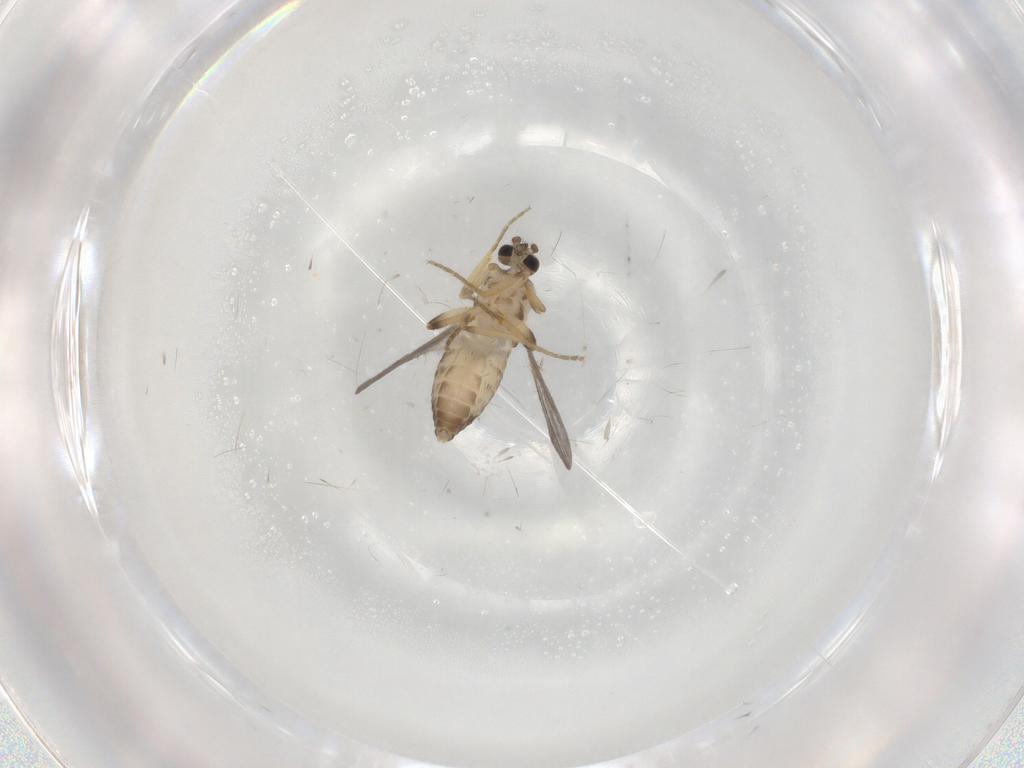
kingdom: Animalia
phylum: Arthropoda
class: Insecta
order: Diptera
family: Ceratopogonidae
